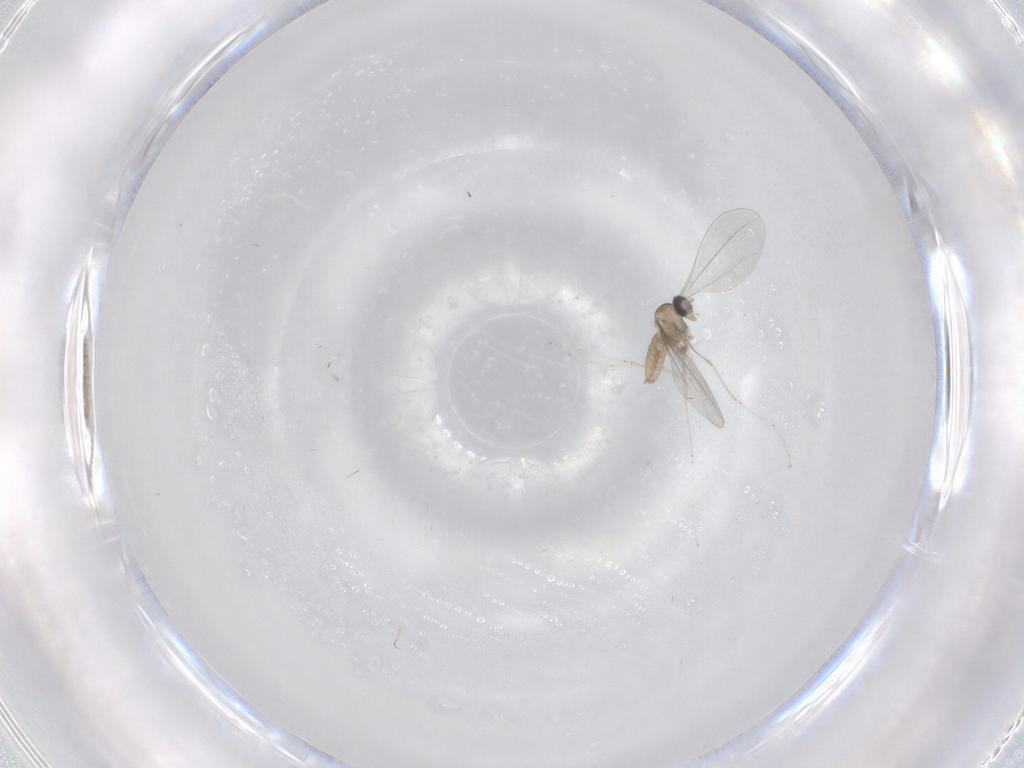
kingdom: Animalia
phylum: Arthropoda
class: Insecta
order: Diptera
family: Cecidomyiidae
